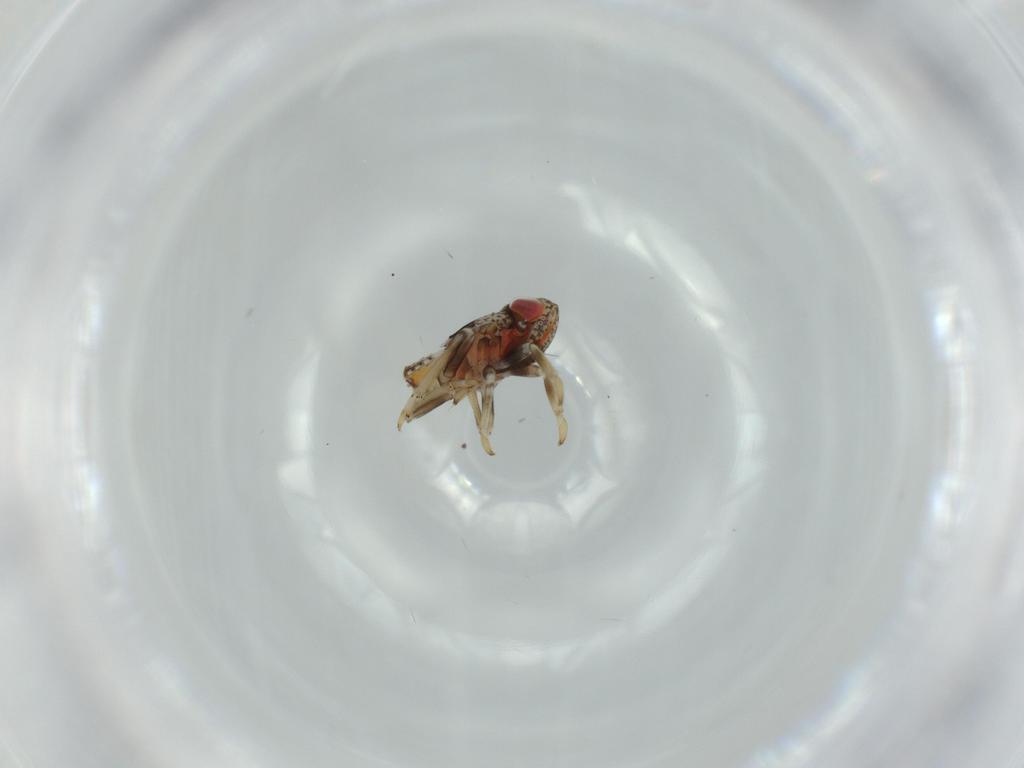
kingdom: Animalia
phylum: Arthropoda
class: Insecta
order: Hemiptera
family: Issidae
